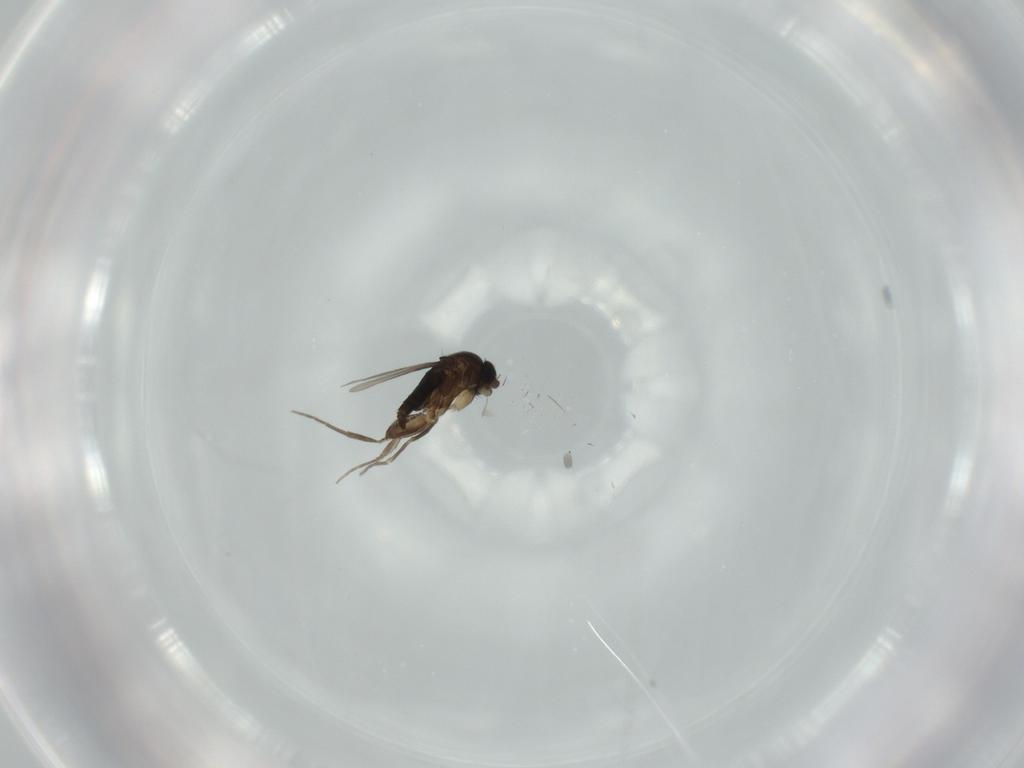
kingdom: Animalia
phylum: Arthropoda
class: Insecta
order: Diptera
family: Phoridae
